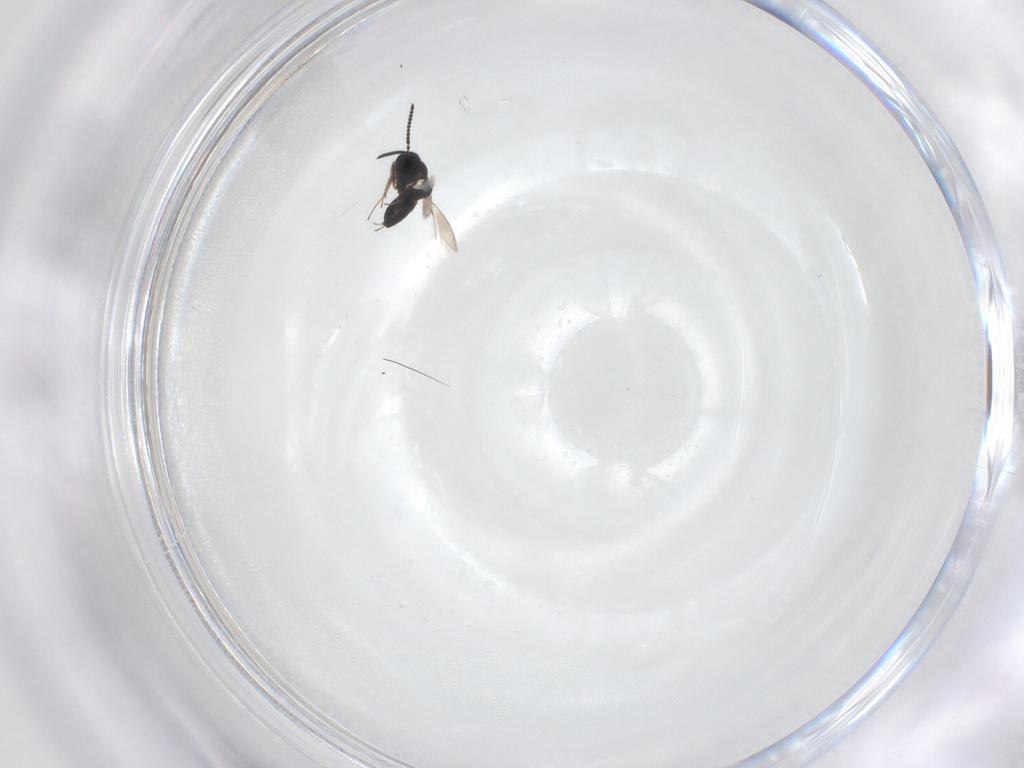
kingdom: Animalia
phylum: Arthropoda
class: Insecta
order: Hymenoptera
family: Scelionidae
